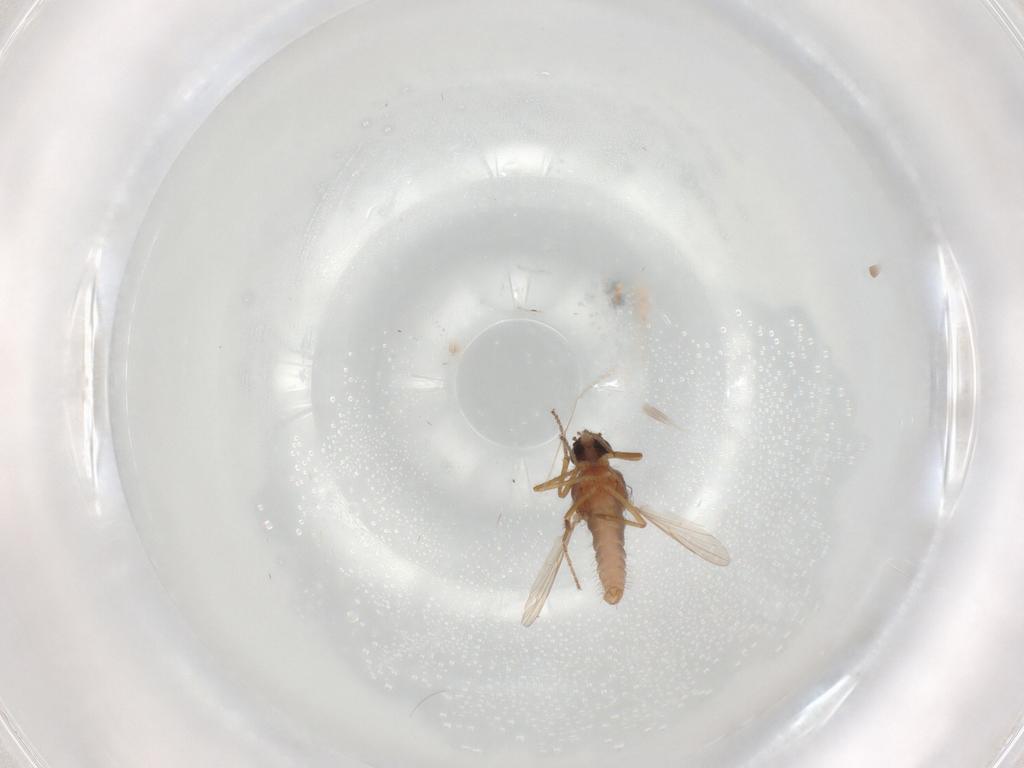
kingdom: Animalia
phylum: Arthropoda
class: Insecta
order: Diptera
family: Ceratopogonidae
